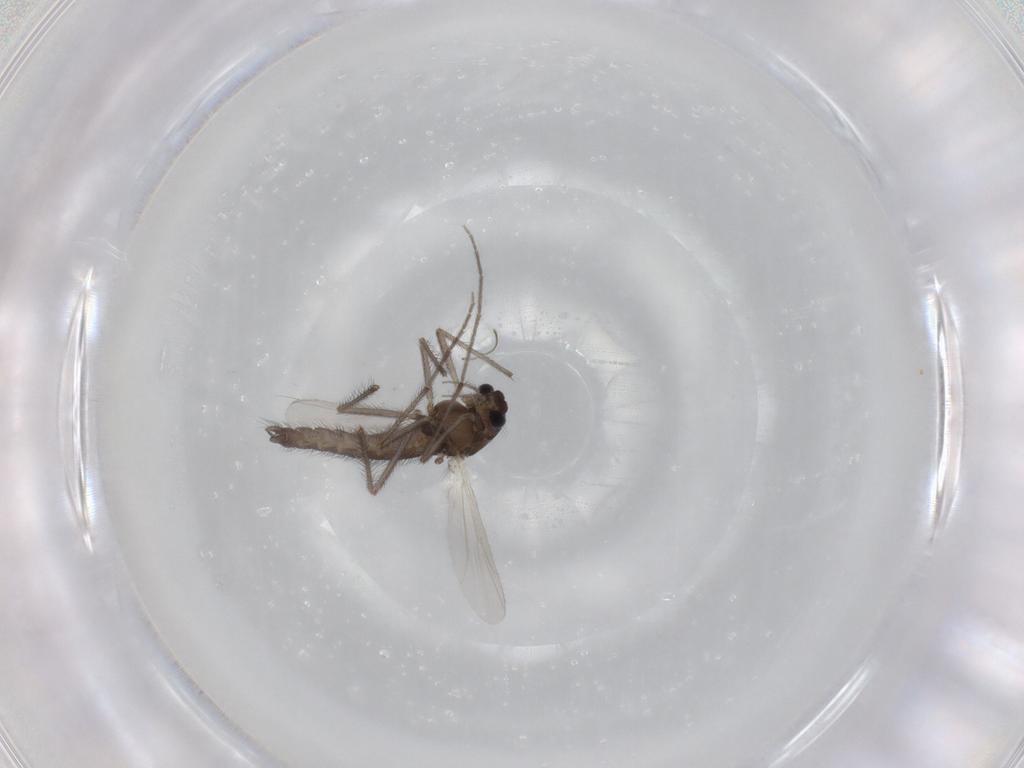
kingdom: Animalia
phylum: Arthropoda
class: Insecta
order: Diptera
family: Chironomidae
